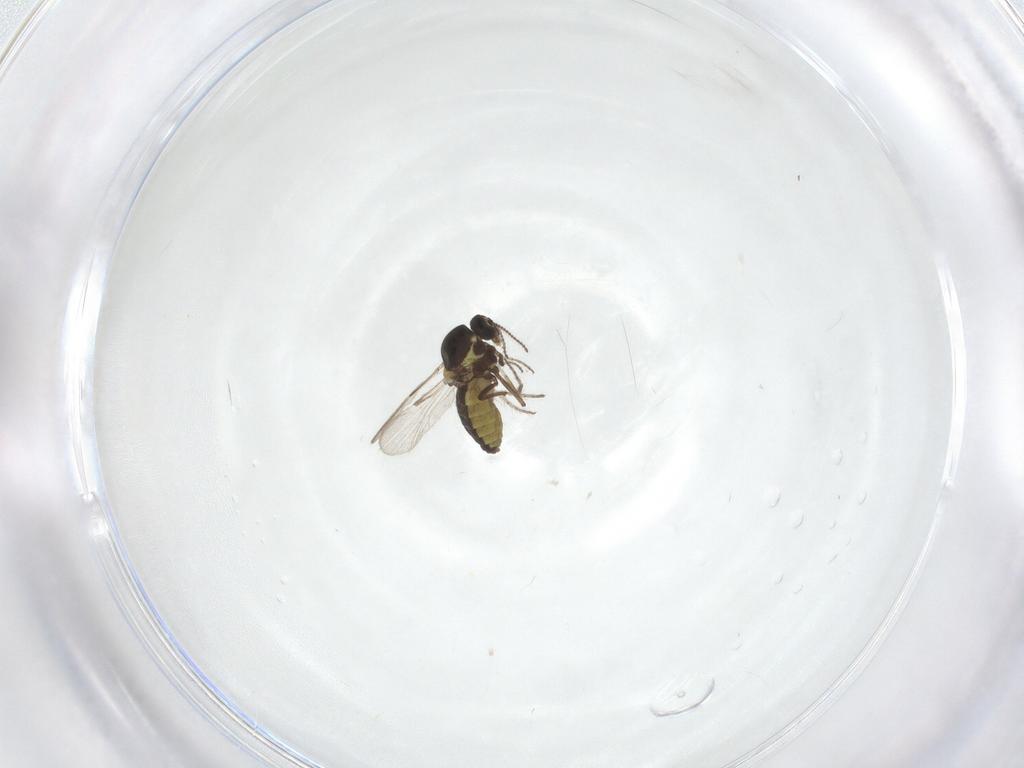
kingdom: Animalia
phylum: Arthropoda
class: Insecta
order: Diptera
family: Ceratopogonidae
